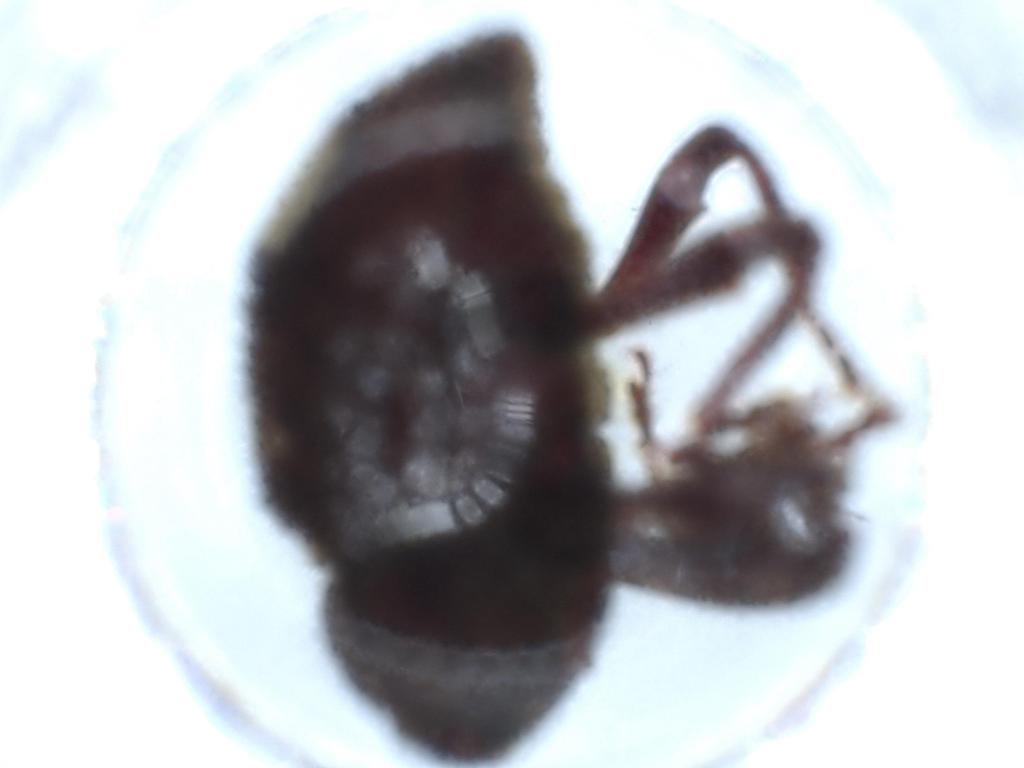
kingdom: Animalia
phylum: Arthropoda
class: Insecta
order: Coleoptera
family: Curculionidae
